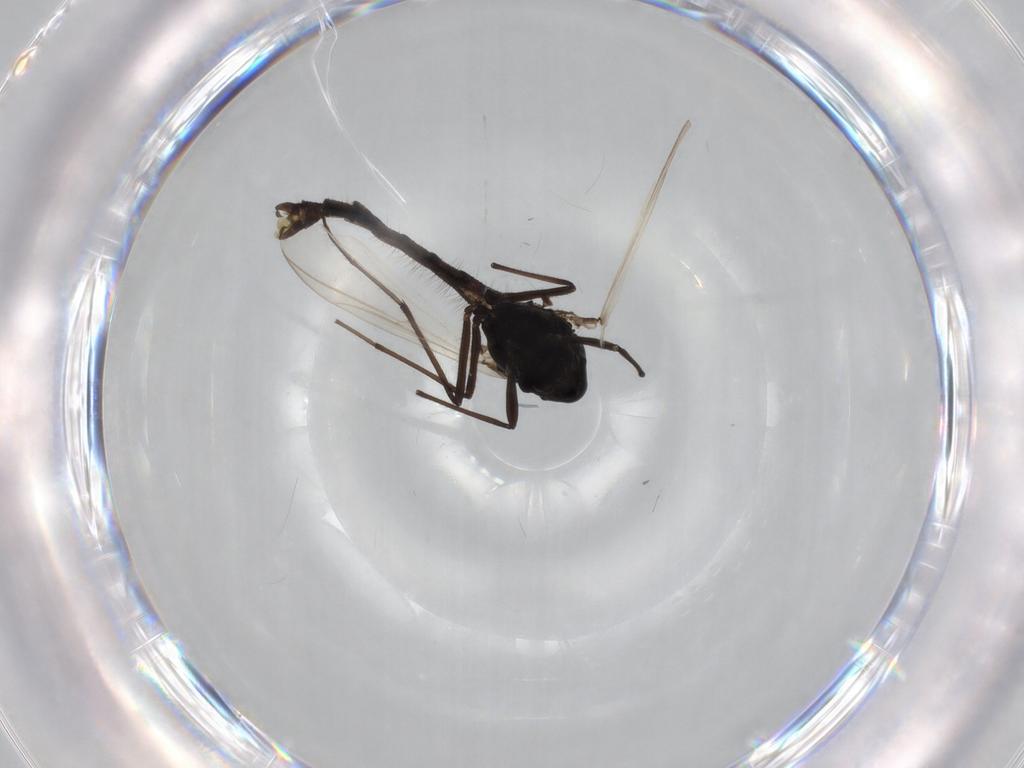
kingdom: Animalia
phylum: Arthropoda
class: Insecta
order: Diptera
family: Chironomidae
